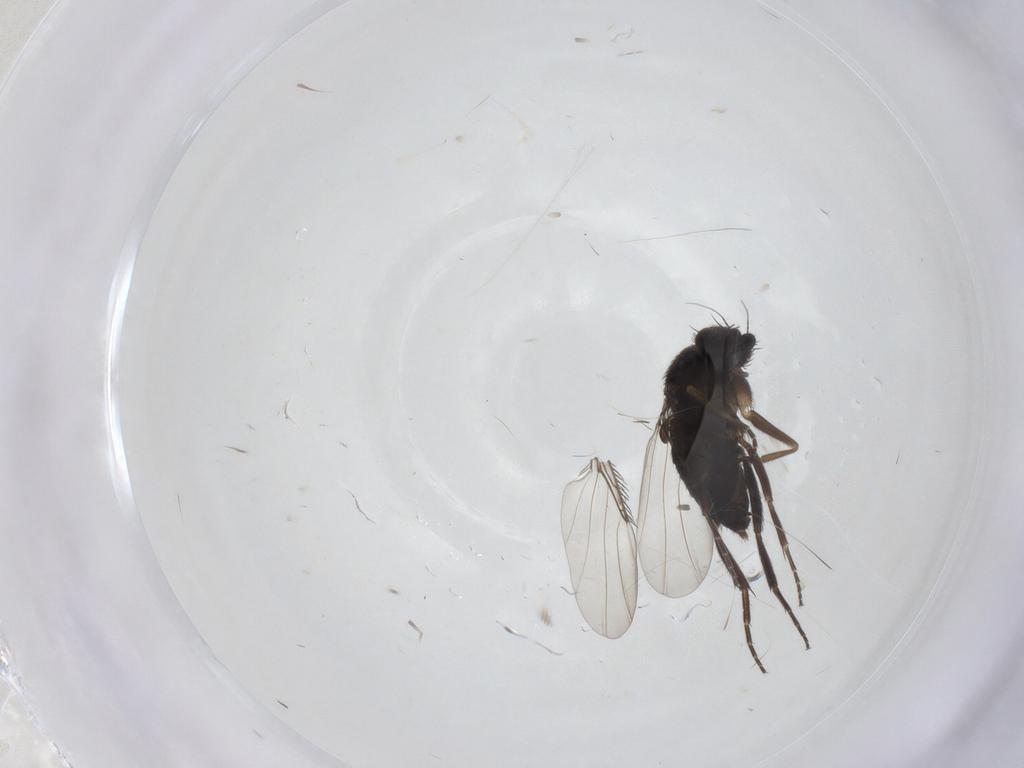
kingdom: Animalia
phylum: Arthropoda
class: Insecta
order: Diptera
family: Phoridae
